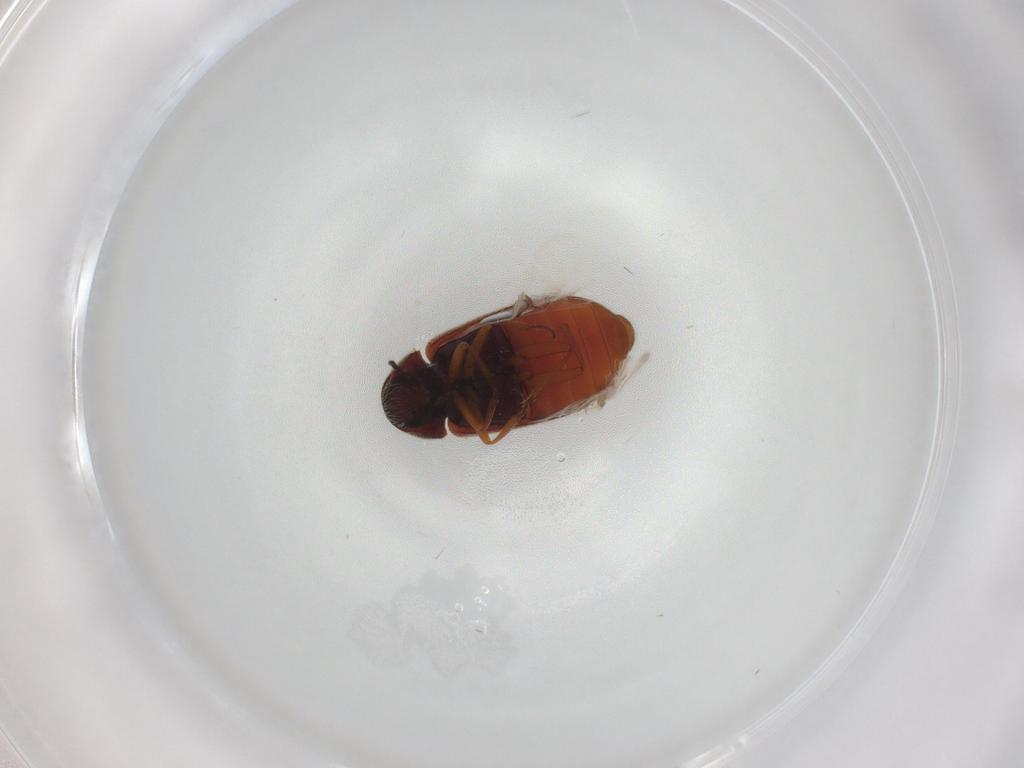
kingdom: Animalia
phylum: Arthropoda
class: Insecta
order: Coleoptera
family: Rhadalidae
